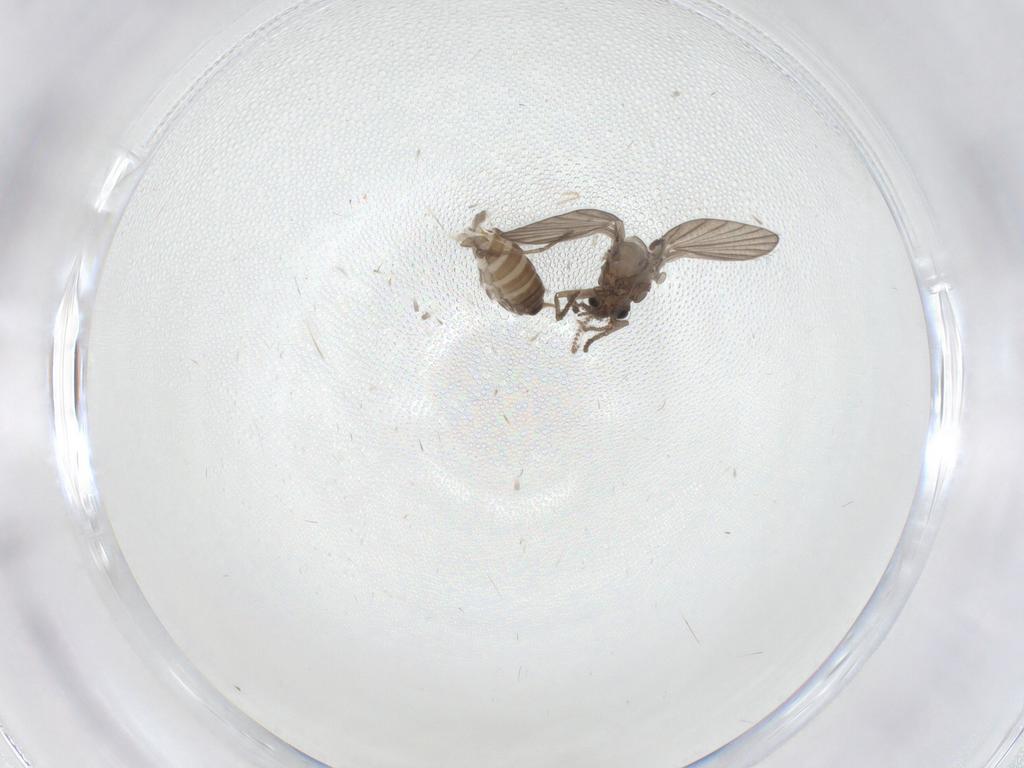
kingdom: Animalia
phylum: Arthropoda
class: Insecta
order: Diptera
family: Psychodidae
